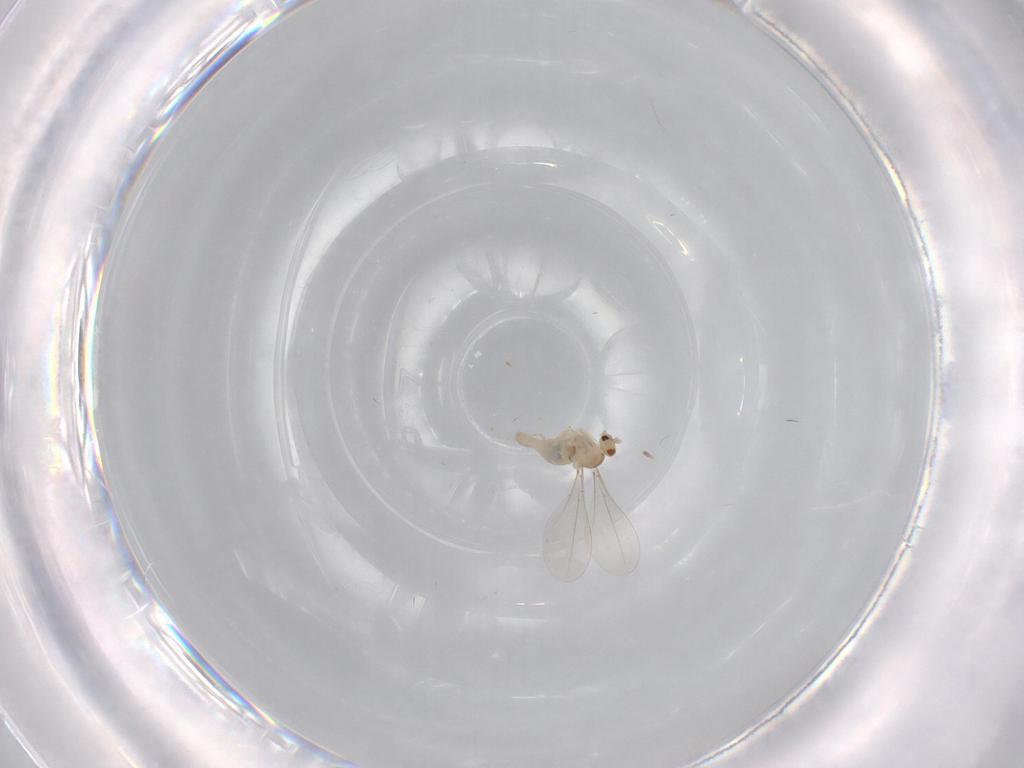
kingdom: Animalia
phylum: Arthropoda
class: Insecta
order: Diptera
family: Cecidomyiidae
